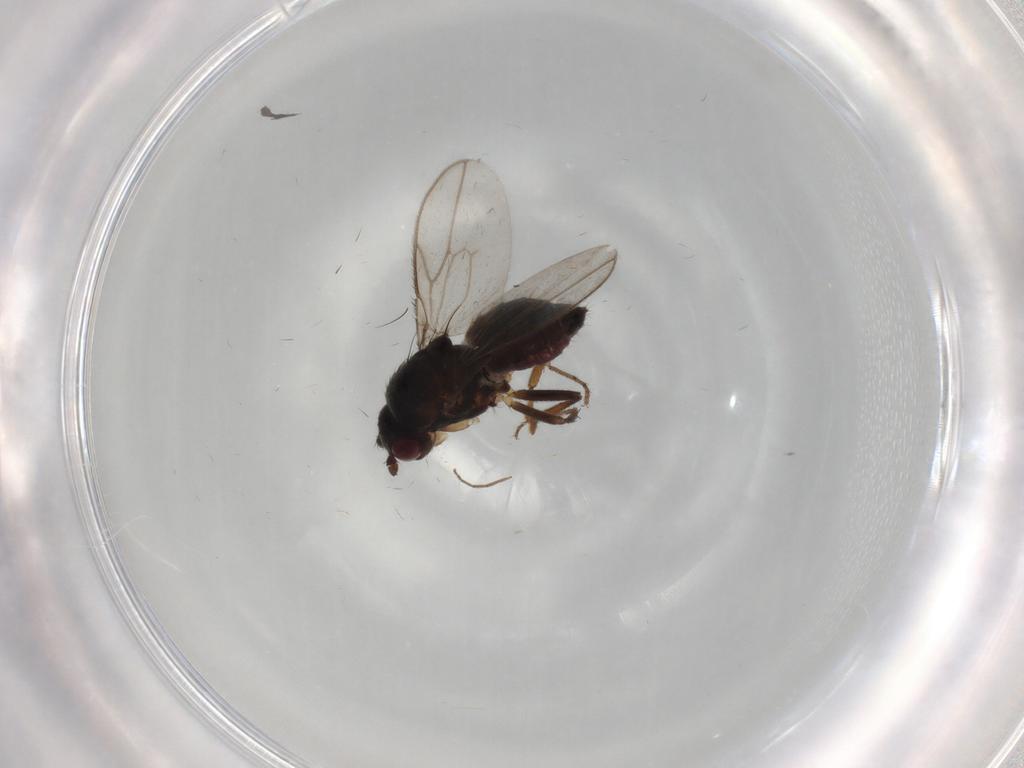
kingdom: Animalia
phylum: Arthropoda
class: Insecta
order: Diptera
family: Sphaeroceridae
